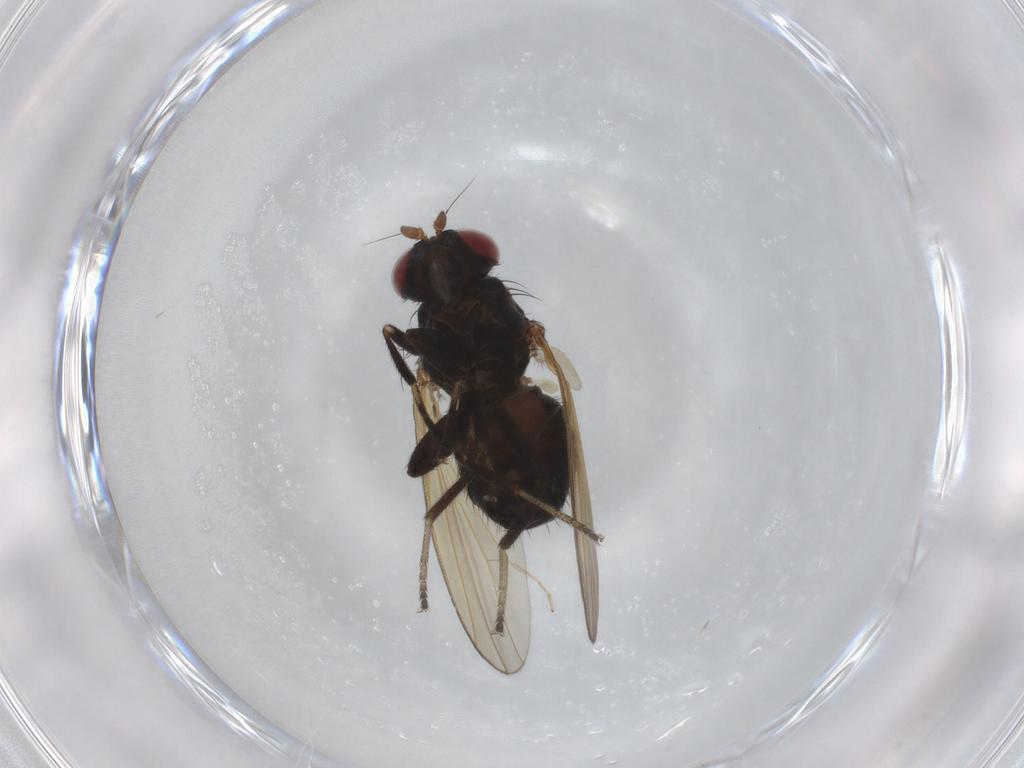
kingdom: Animalia
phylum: Arthropoda
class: Insecta
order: Diptera
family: Chironomidae
